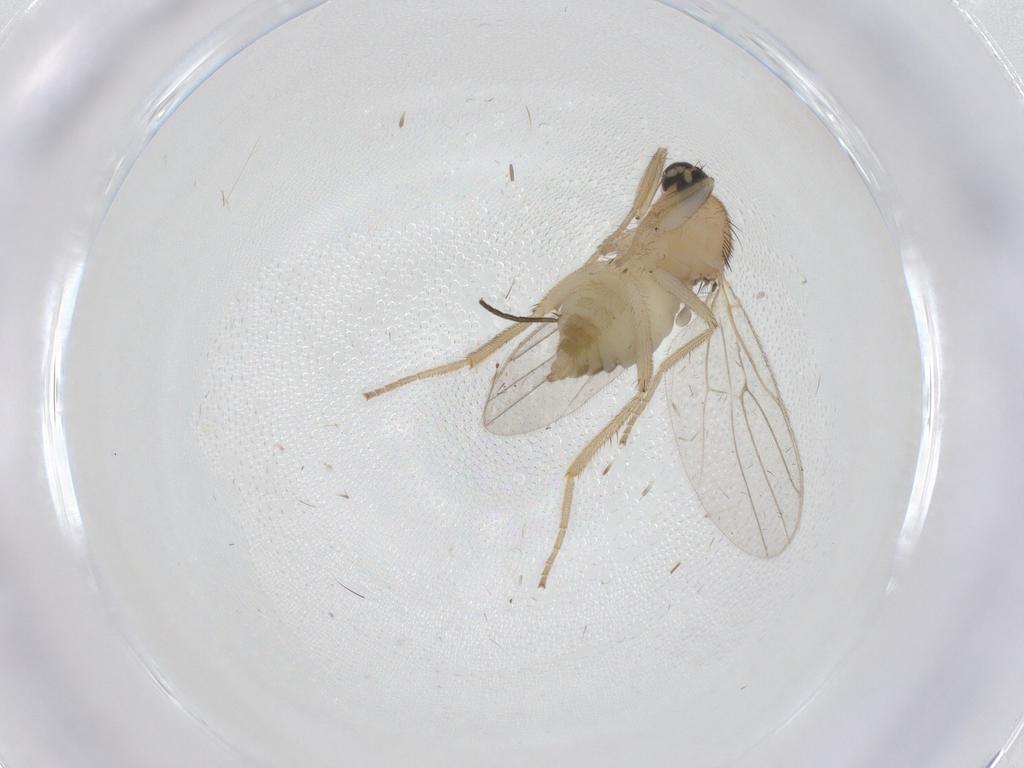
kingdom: Animalia
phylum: Arthropoda
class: Insecta
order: Diptera
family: Hybotidae
